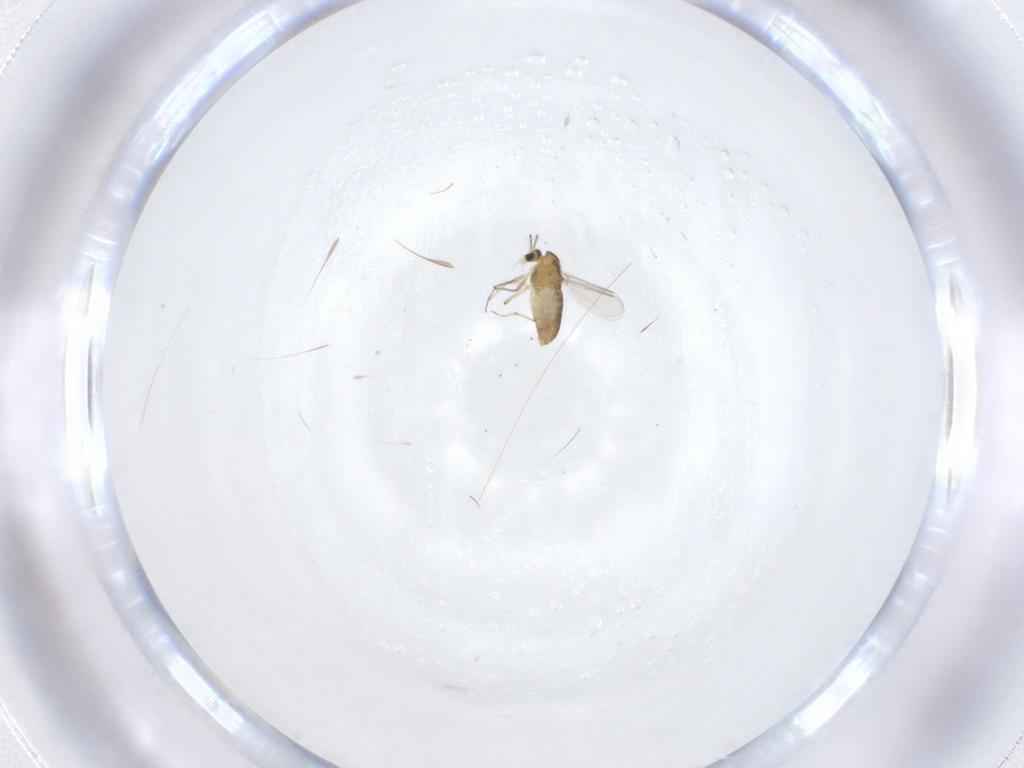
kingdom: Animalia
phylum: Arthropoda
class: Insecta
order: Diptera
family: Chironomidae
